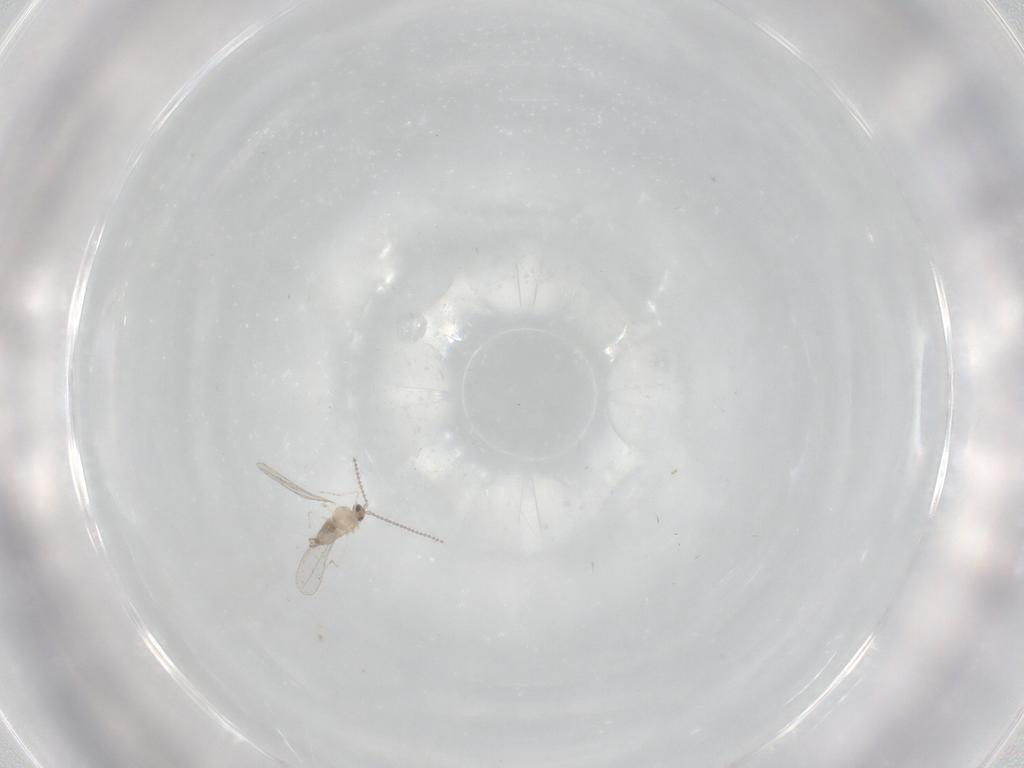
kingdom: Animalia
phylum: Arthropoda
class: Insecta
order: Diptera
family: Cecidomyiidae
